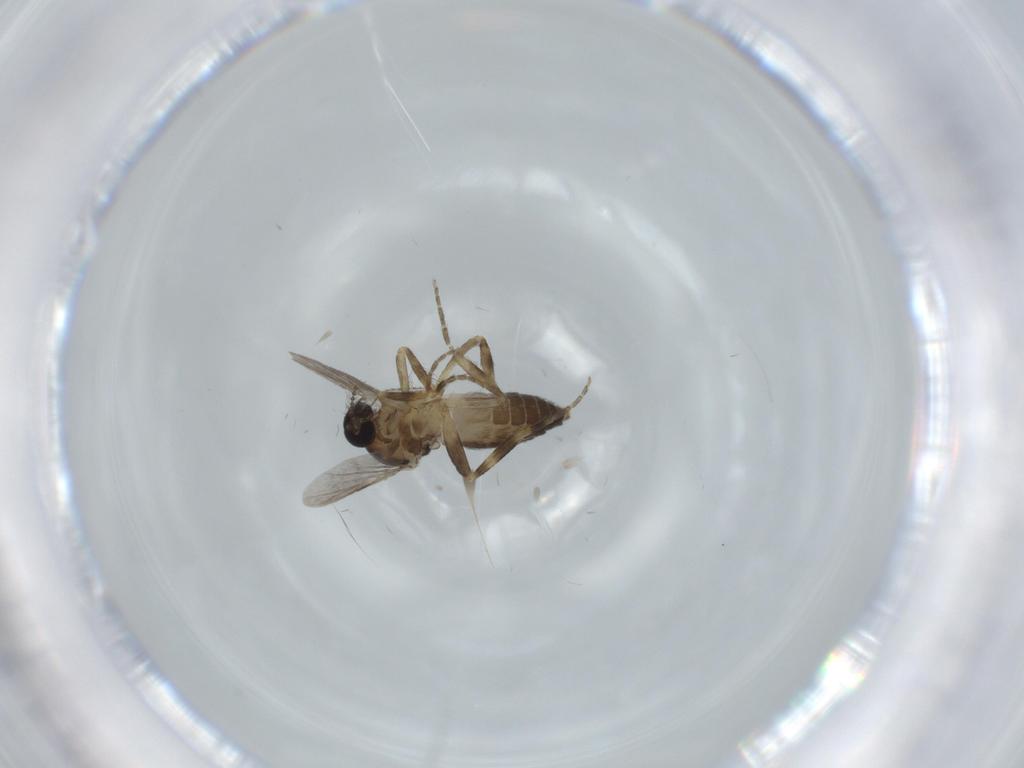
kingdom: Animalia
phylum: Arthropoda
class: Insecta
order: Diptera
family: Ceratopogonidae
